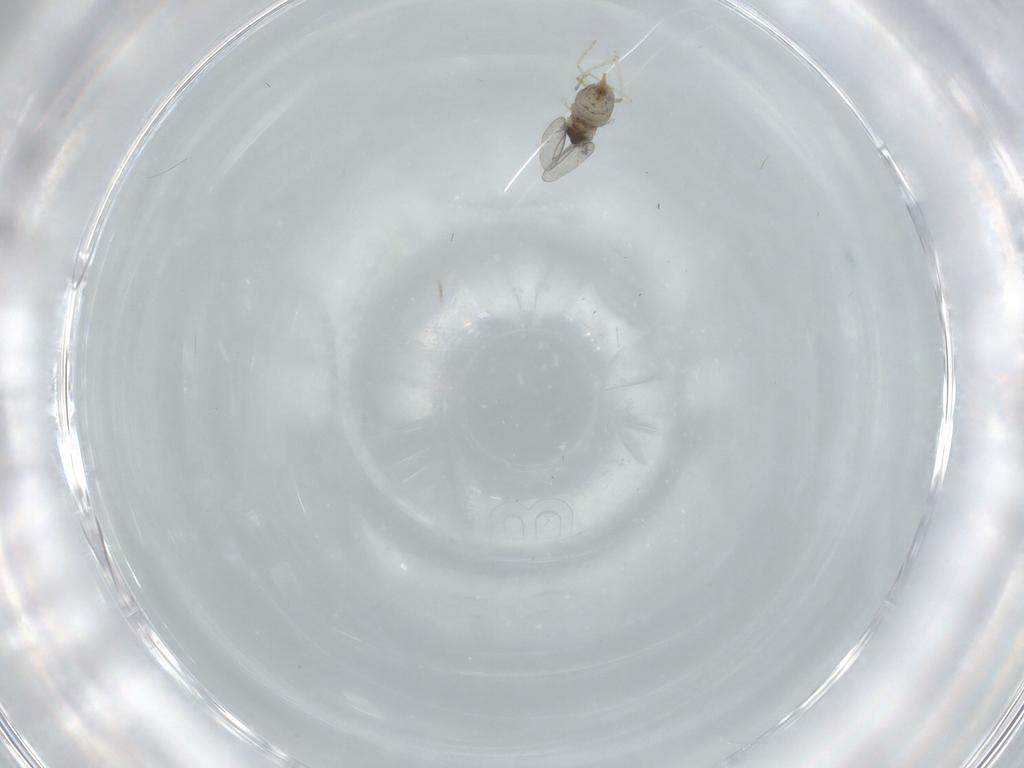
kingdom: Animalia
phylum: Arthropoda
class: Insecta
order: Diptera
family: Cecidomyiidae
